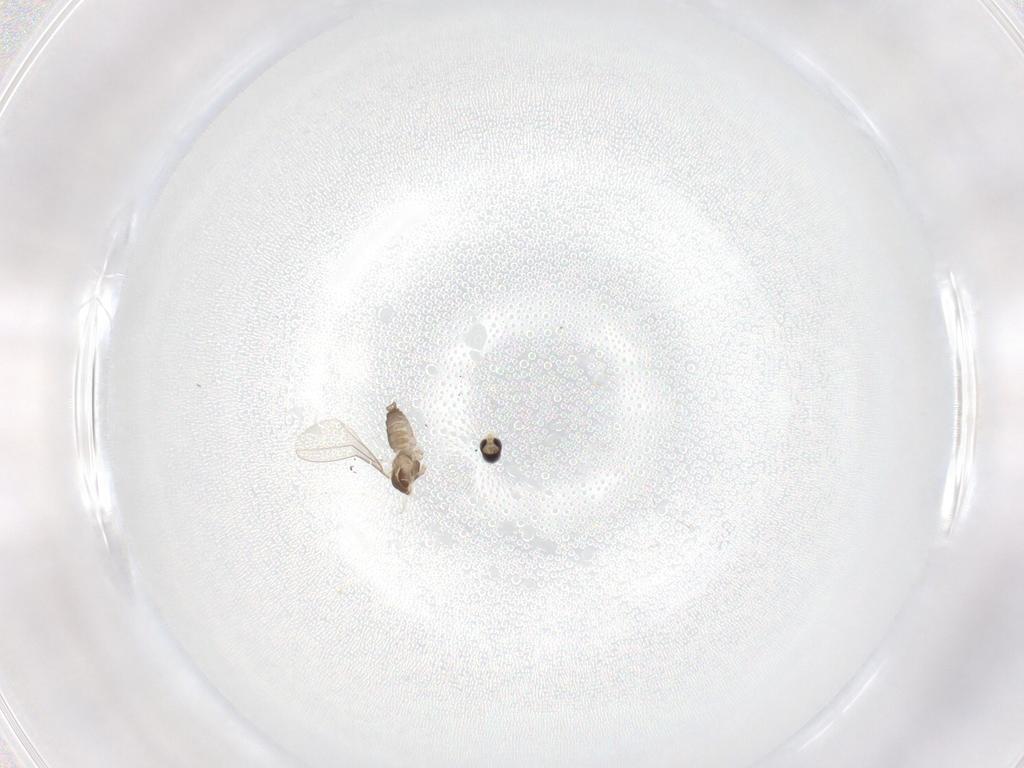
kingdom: Animalia
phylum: Arthropoda
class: Insecta
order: Diptera
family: Cecidomyiidae
